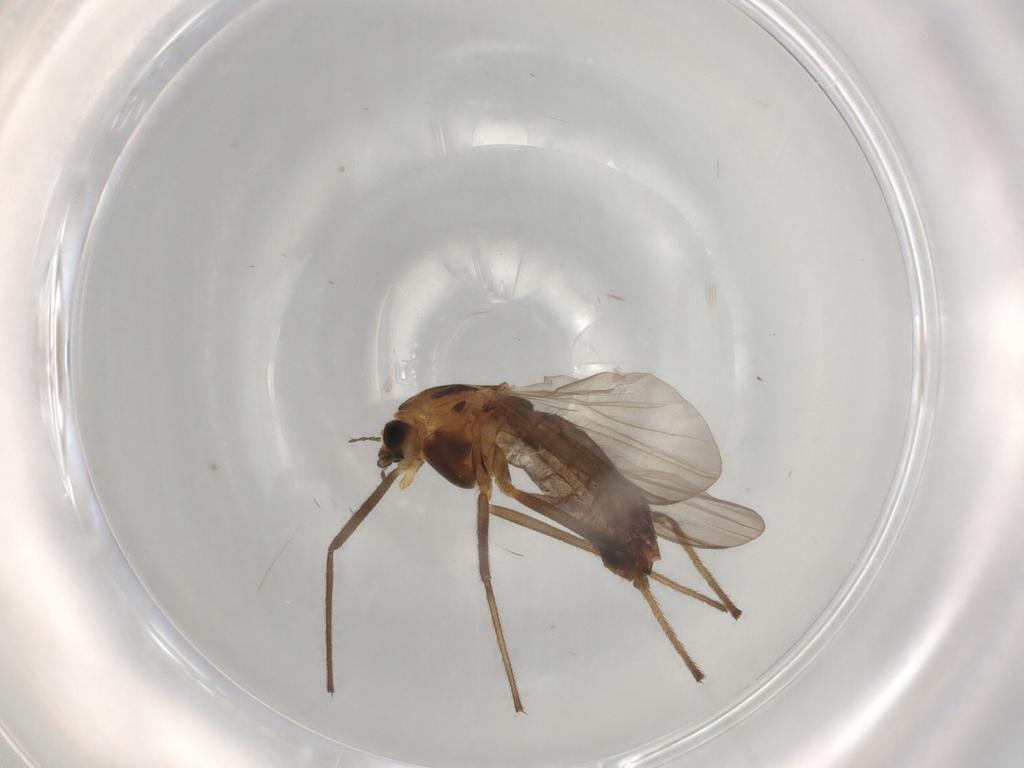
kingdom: Animalia
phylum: Arthropoda
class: Insecta
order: Diptera
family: Chironomidae
